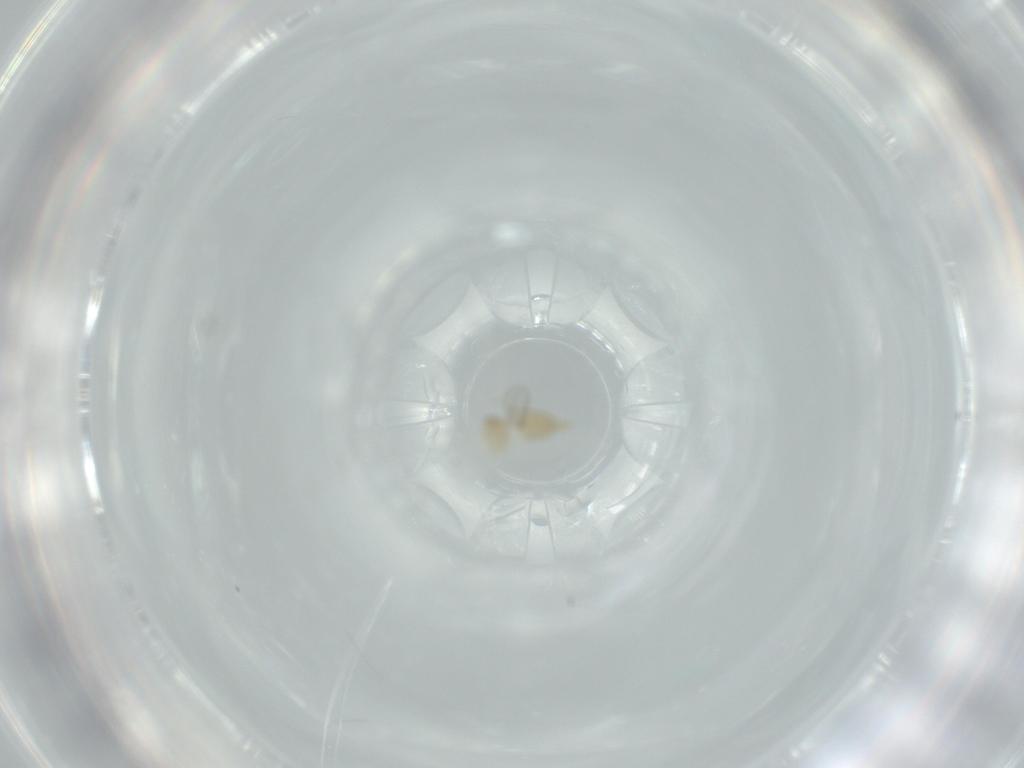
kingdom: Animalia
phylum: Arthropoda
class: Insecta
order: Diptera
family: Cecidomyiidae
